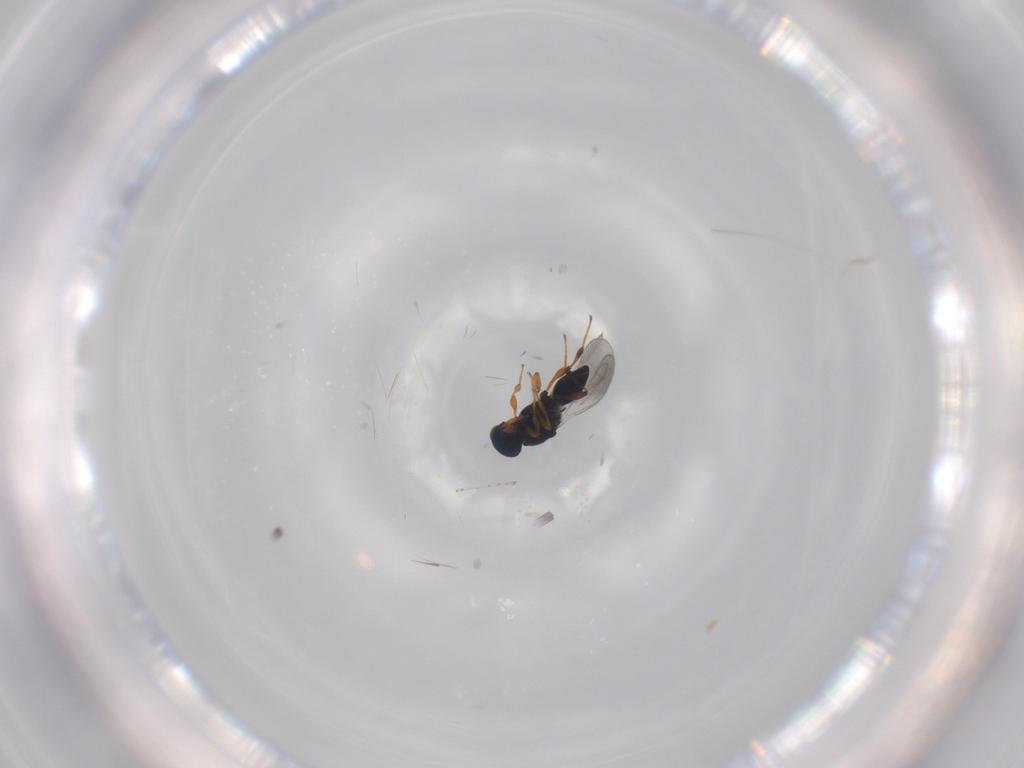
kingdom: Animalia
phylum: Arthropoda
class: Insecta
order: Hymenoptera
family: Platygastridae
